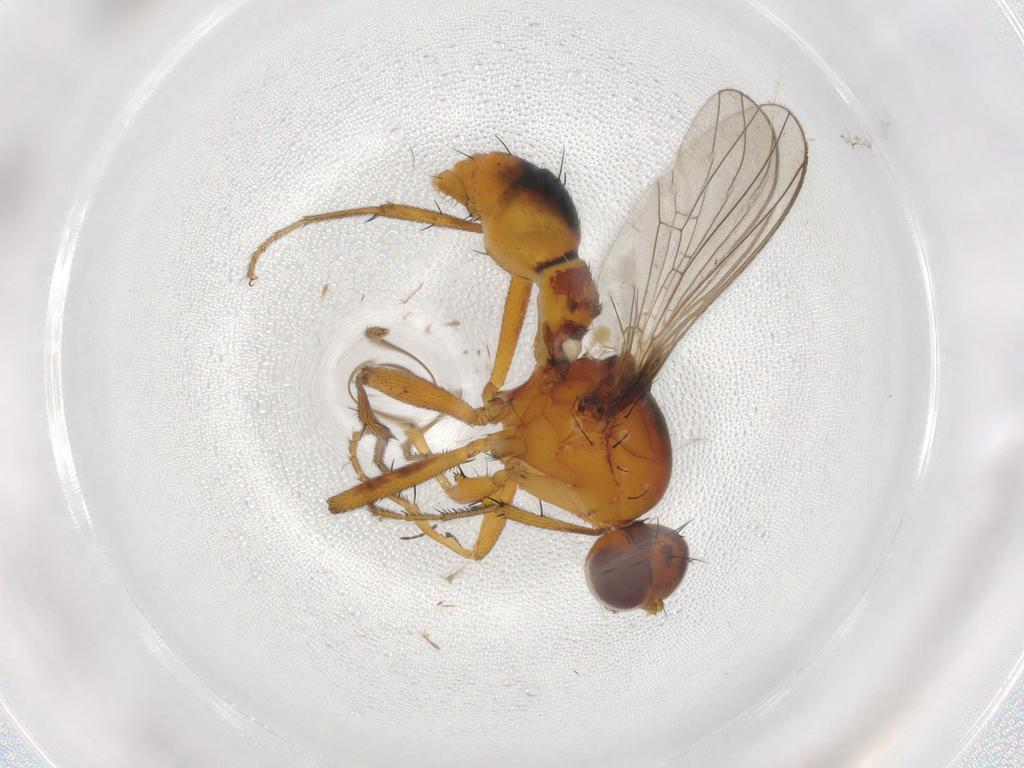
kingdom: Animalia
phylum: Arthropoda
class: Insecta
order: Diptera
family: Sepsidae
